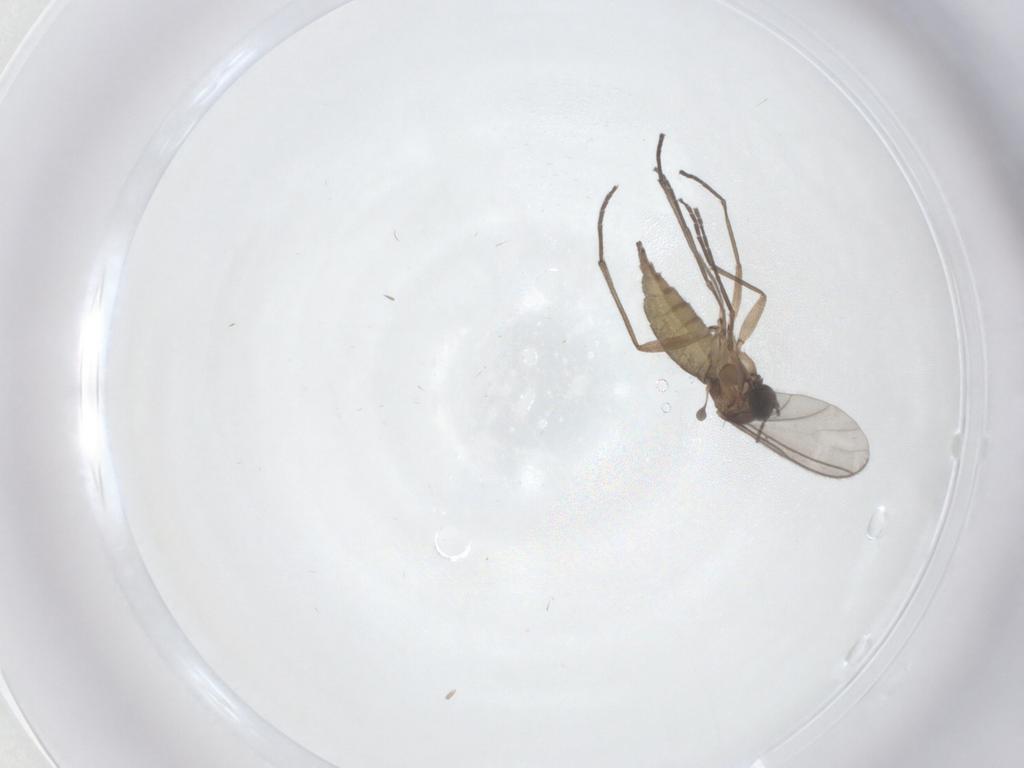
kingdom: Animalia
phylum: Arthropoda
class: Insecta
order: Diptera
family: Sciaridae
